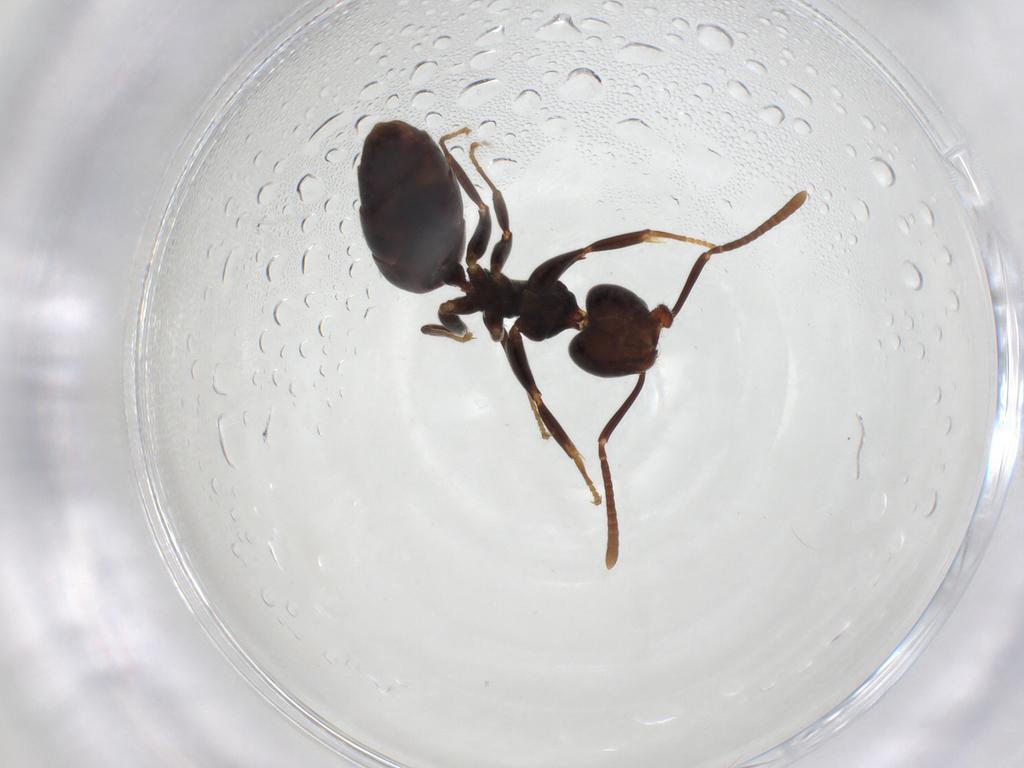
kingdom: Animalia
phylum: Arthropoda
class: Insecta
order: Hymenoptera
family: Formicidae
